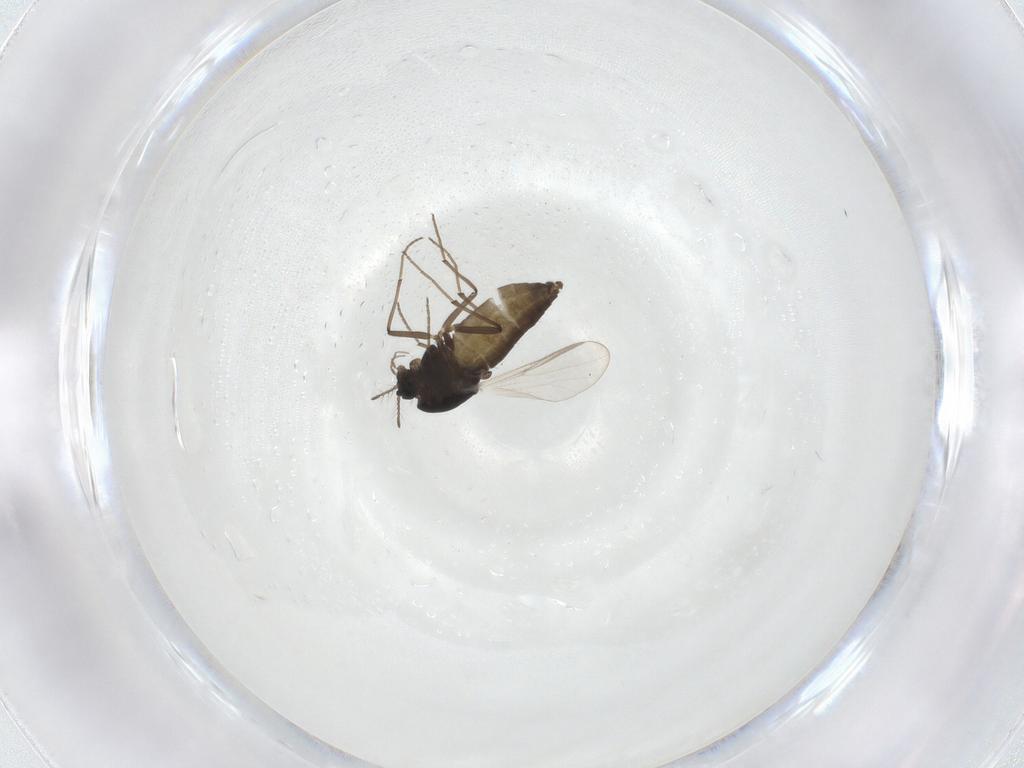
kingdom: Animalia
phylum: Arthropoda
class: Insecta
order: Diptera
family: Chironomidae
